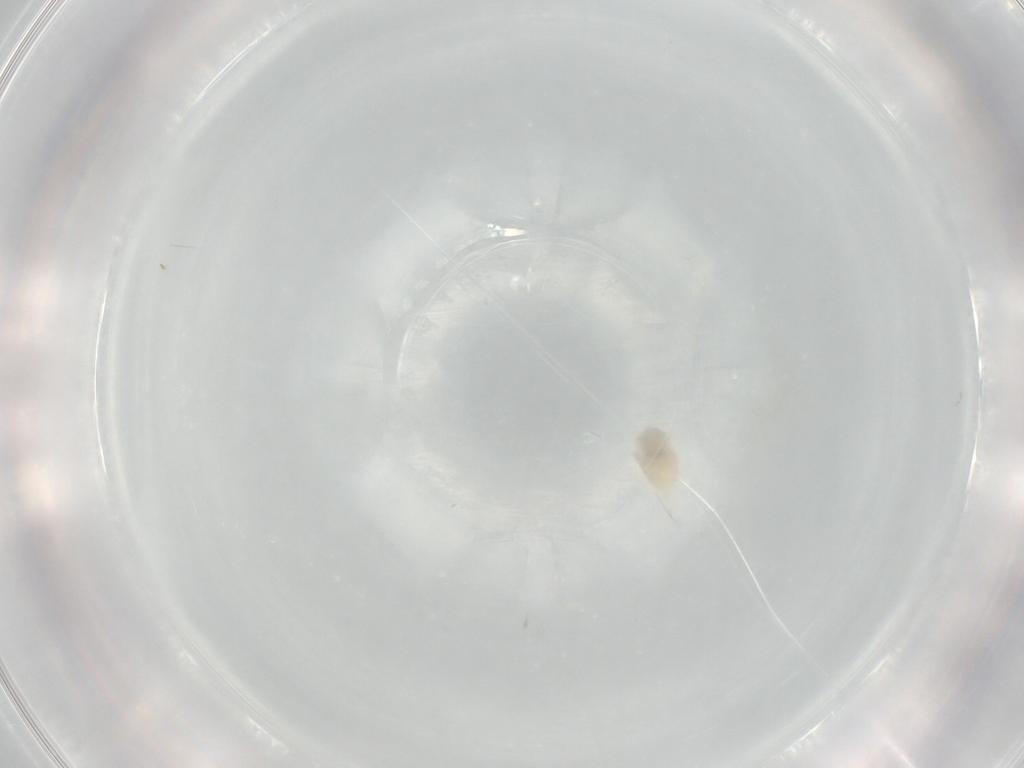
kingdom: Animalia
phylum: Arthropoda
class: Arachnida
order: Trombidiformes
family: Bdellidae
